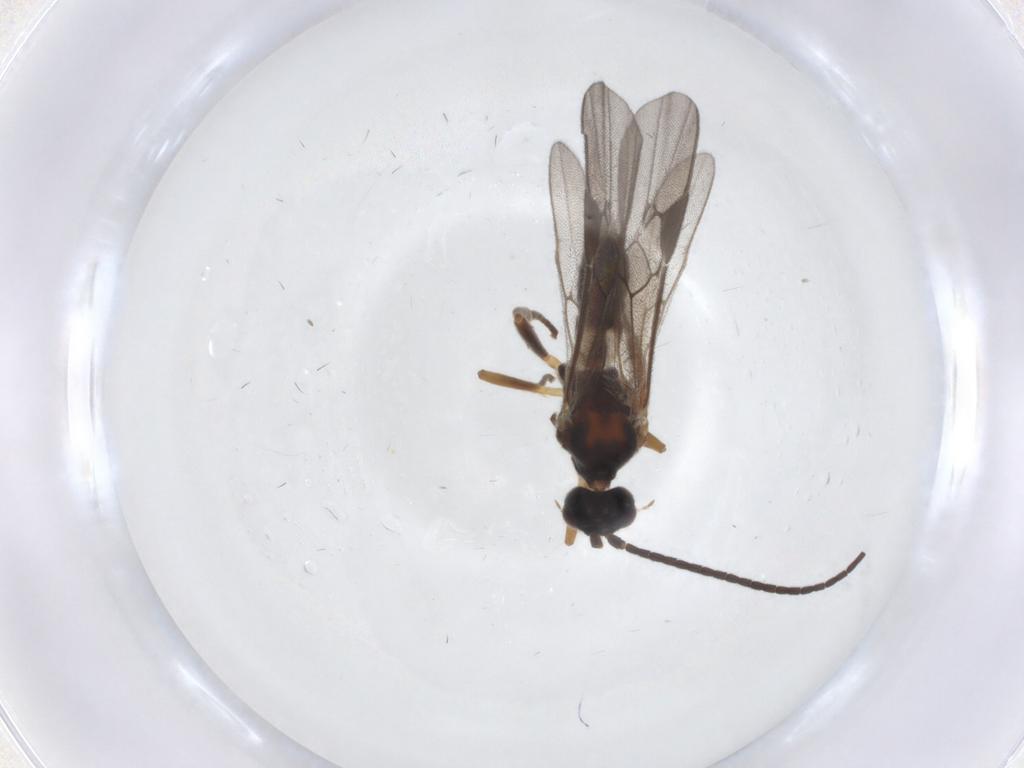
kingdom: Animalia
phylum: Arthropoda
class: Insecta
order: Hymenoptera
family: Braconidae
